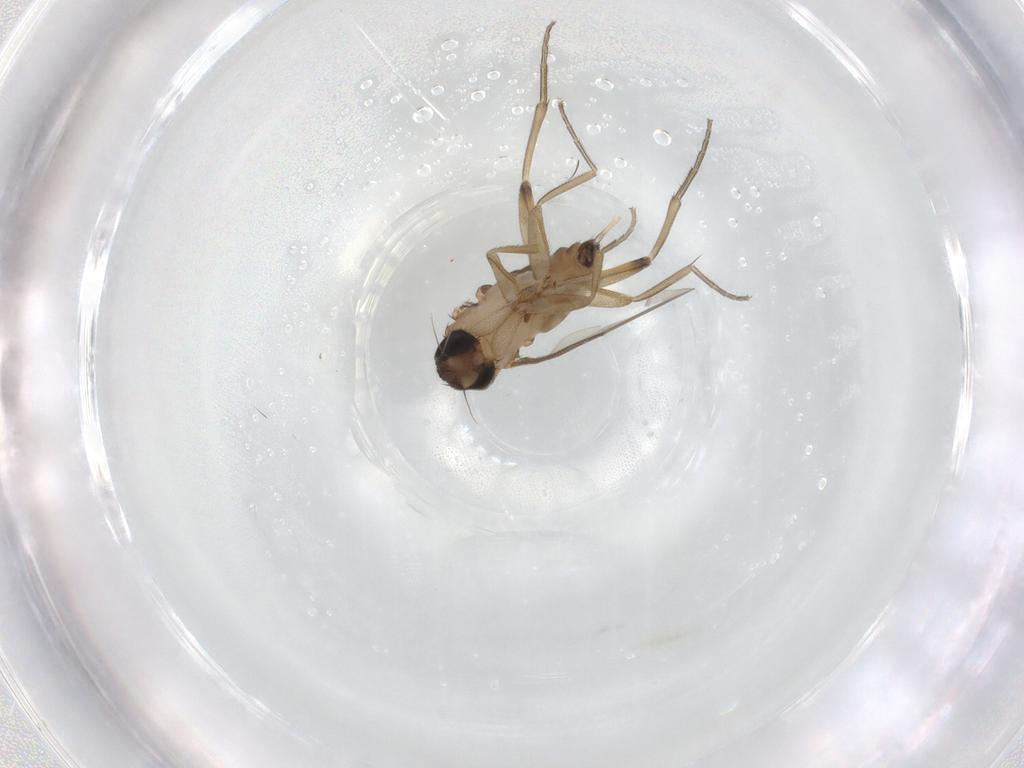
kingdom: Animalia
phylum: Arthropoda
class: Insecta
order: Diptera
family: Phoridae
